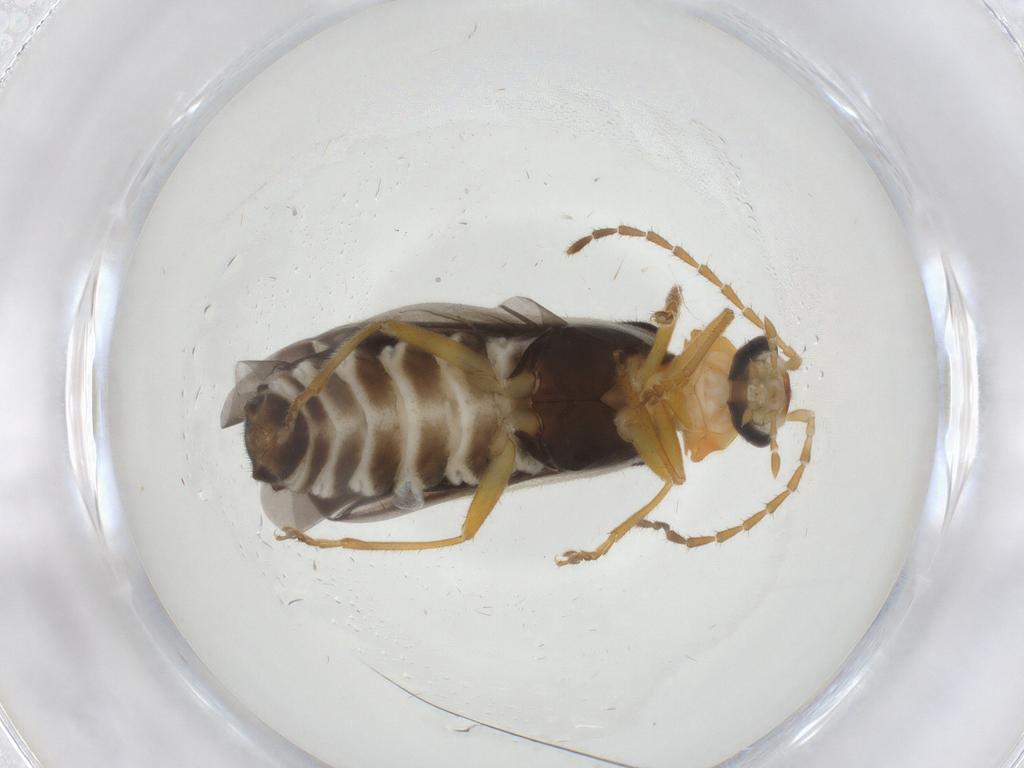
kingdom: Animalia
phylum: Arthropoda
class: Insecta
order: Coleoptera
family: Cantharidae
